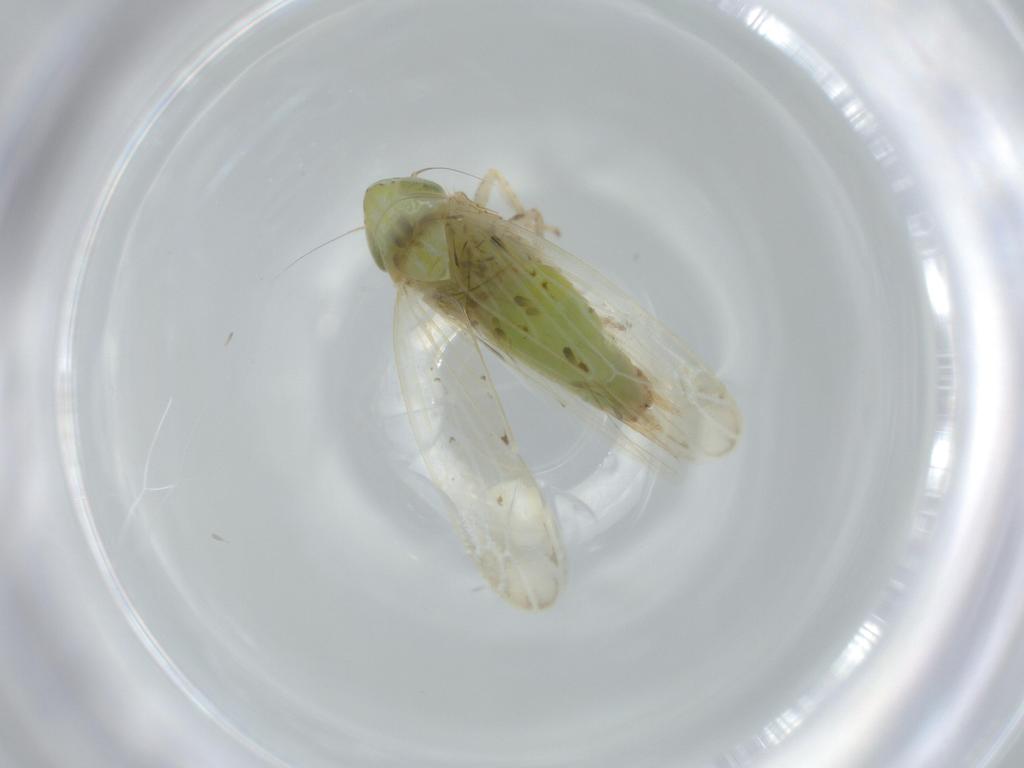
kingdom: Animalia
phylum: Arthropoda
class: Insecta
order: Hemiptera
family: Cicadellidae
